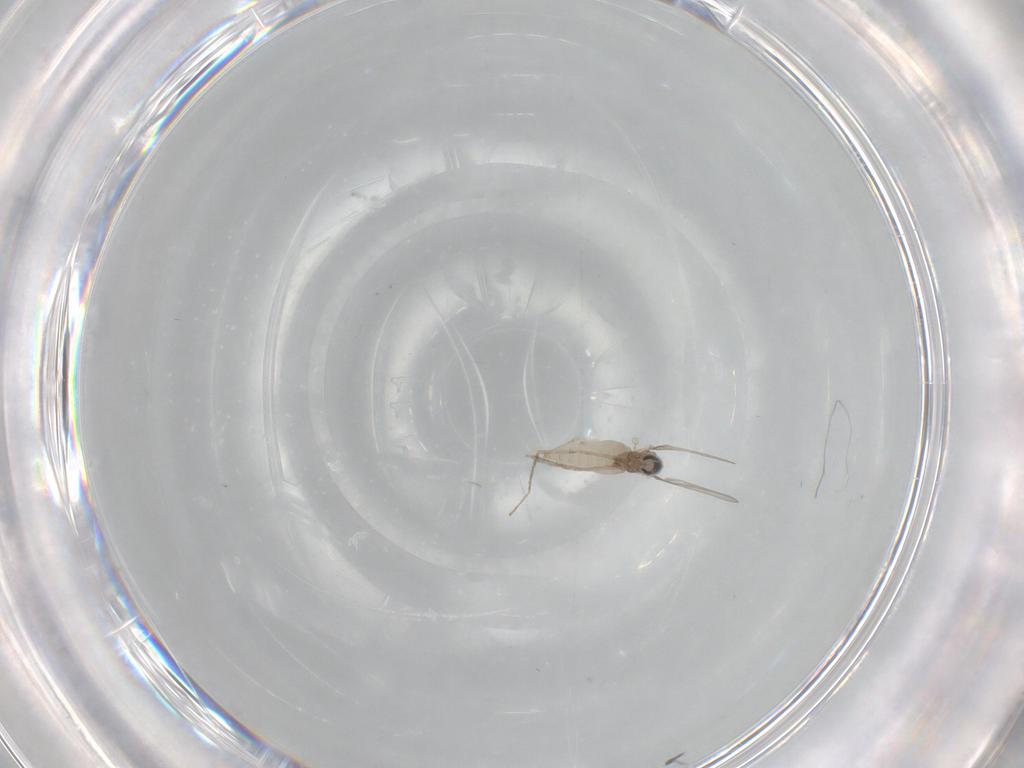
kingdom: Animalia
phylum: Arthropoda
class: Insecta
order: Diptera
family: Cecidomyiidae
